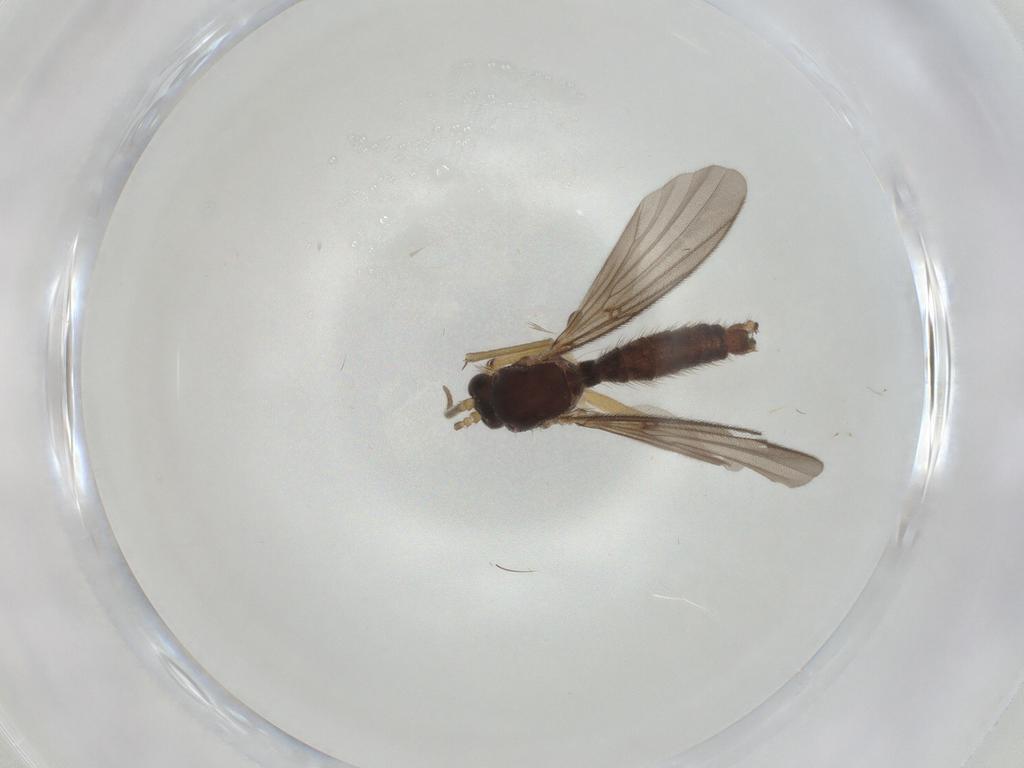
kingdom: Animalia
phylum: Arthropoda
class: Insecta
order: Diptera
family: Mycetophilidae
